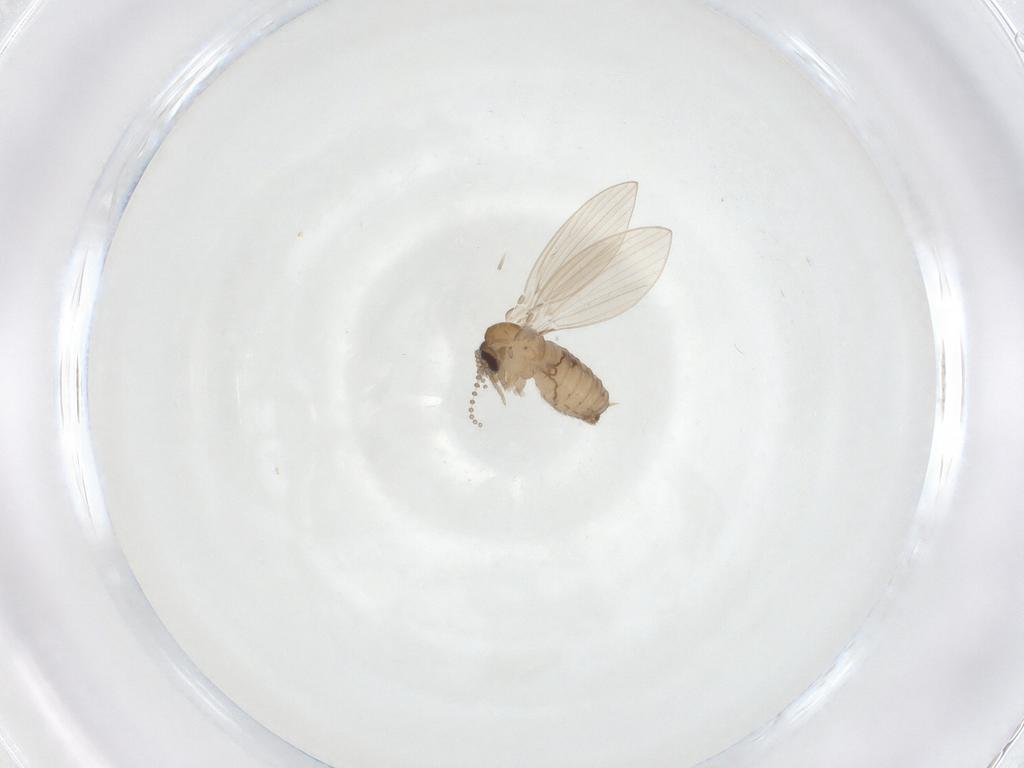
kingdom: Animalia
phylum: Arthropoda
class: Insecta
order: Diptera
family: Psychodidae
